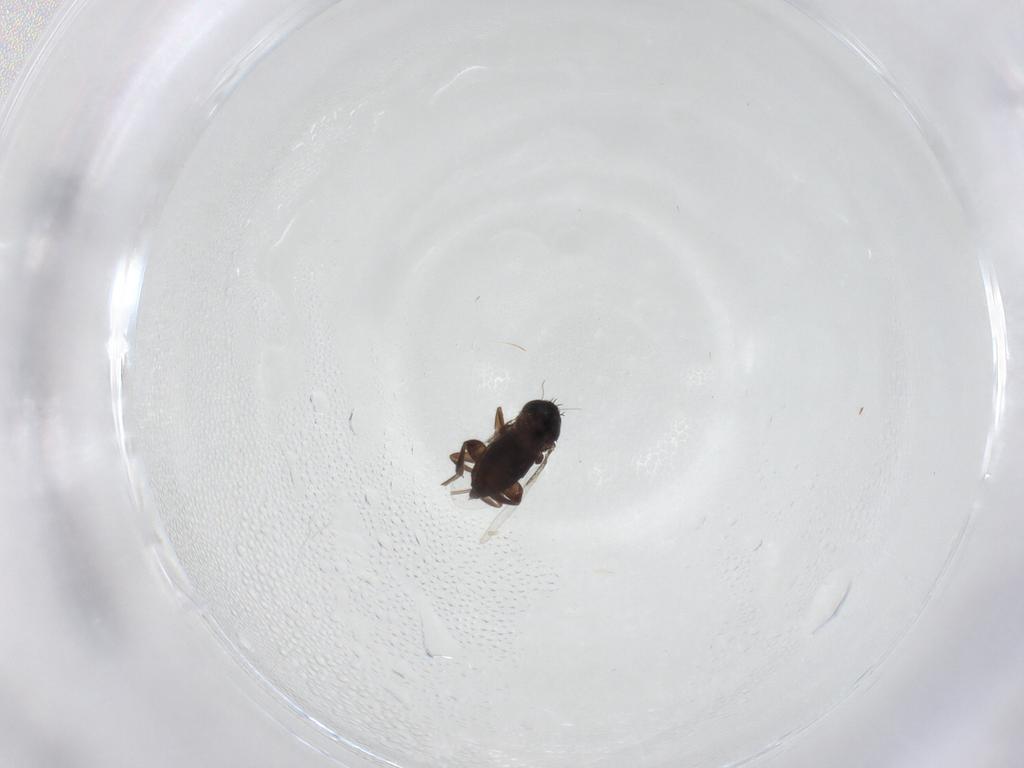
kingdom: Animalia
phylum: Arthropoda
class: Insecta
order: Diptera
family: Phoridae
